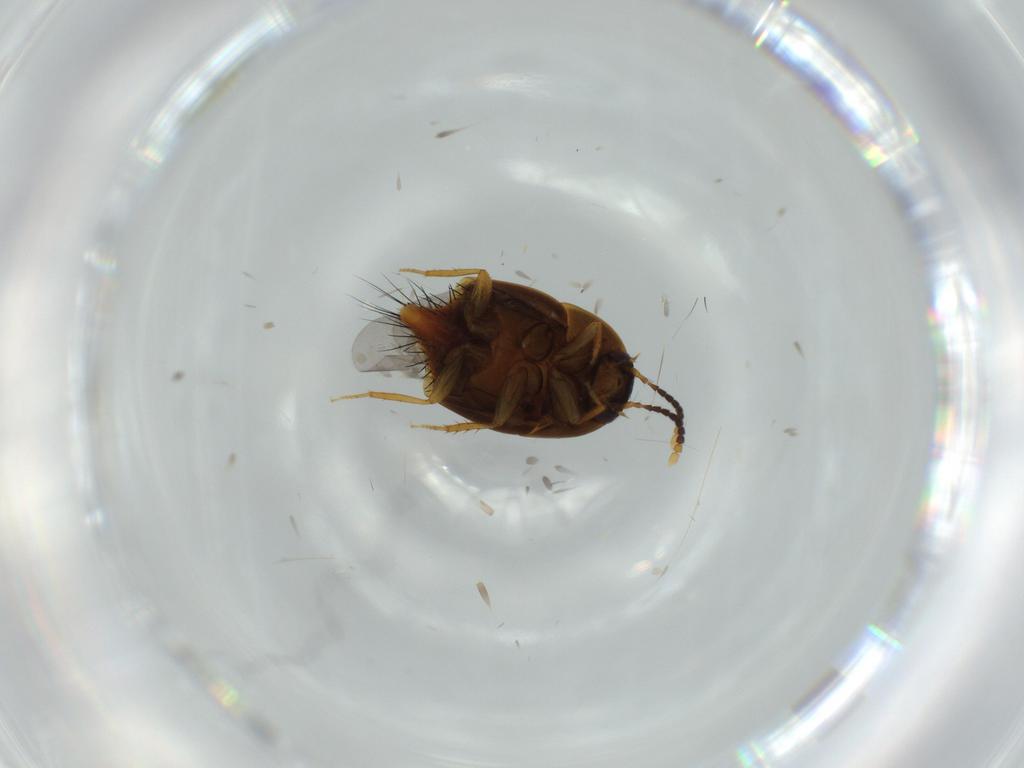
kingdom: Animalia
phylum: Arthropoda
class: Insecta
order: Coleoptera
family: Staphylinidae
